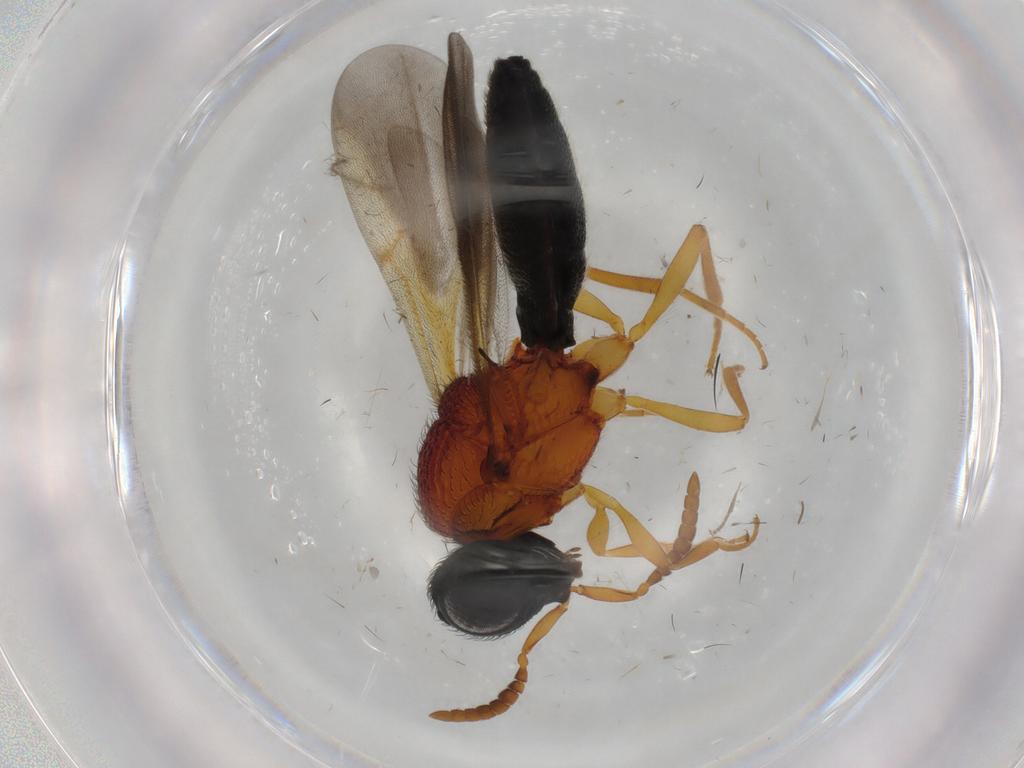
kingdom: Animalia
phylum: Arthropoda
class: Insecta
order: Hymenoptera
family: Scelionidae
